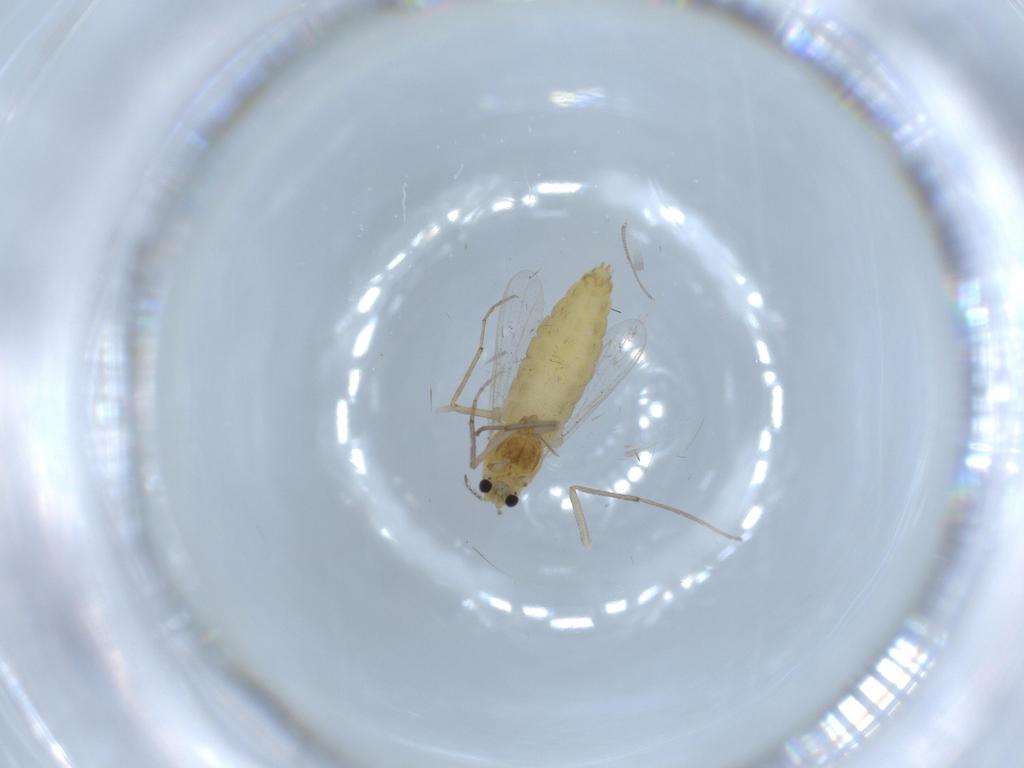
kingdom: Animalia
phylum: Arthropoda
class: Insecta
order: Diptera
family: Chironomidae
